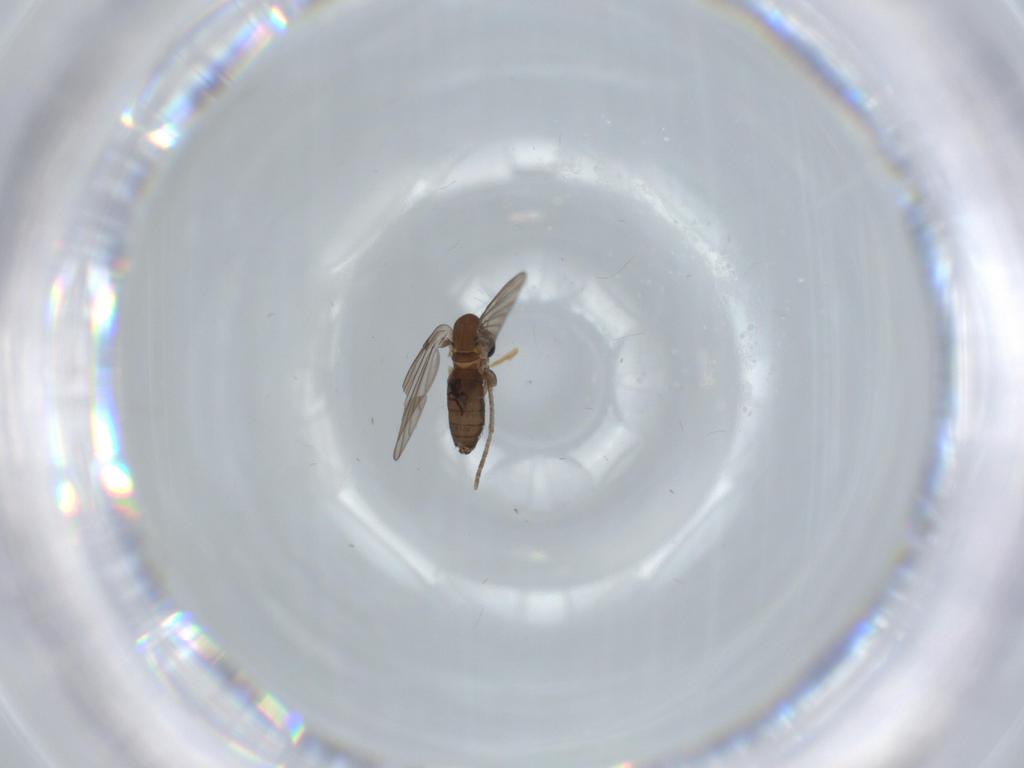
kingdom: Animalia
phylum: Arthropoda
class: Insecta
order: Diptera
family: Psychodidae
